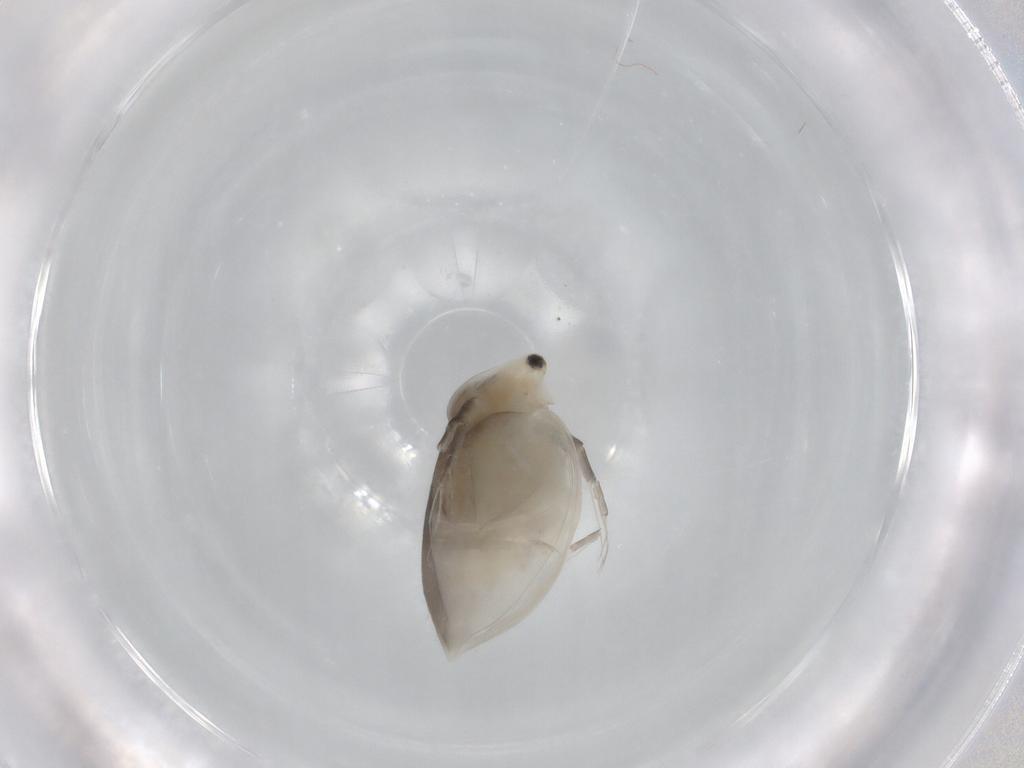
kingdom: Animalia
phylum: Arthropoda
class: Branchiopoda
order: Diplostraca
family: Daphniidae
